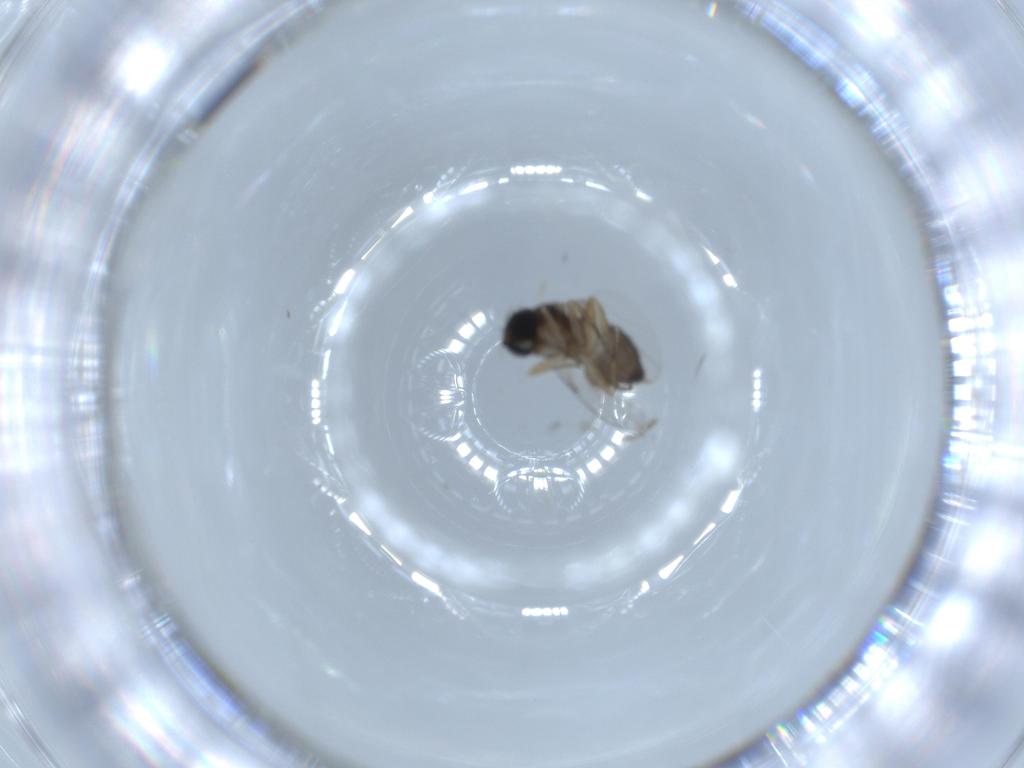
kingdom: Animalia
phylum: Arthropoda
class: Insecta
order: Diptera
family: Phoridae
